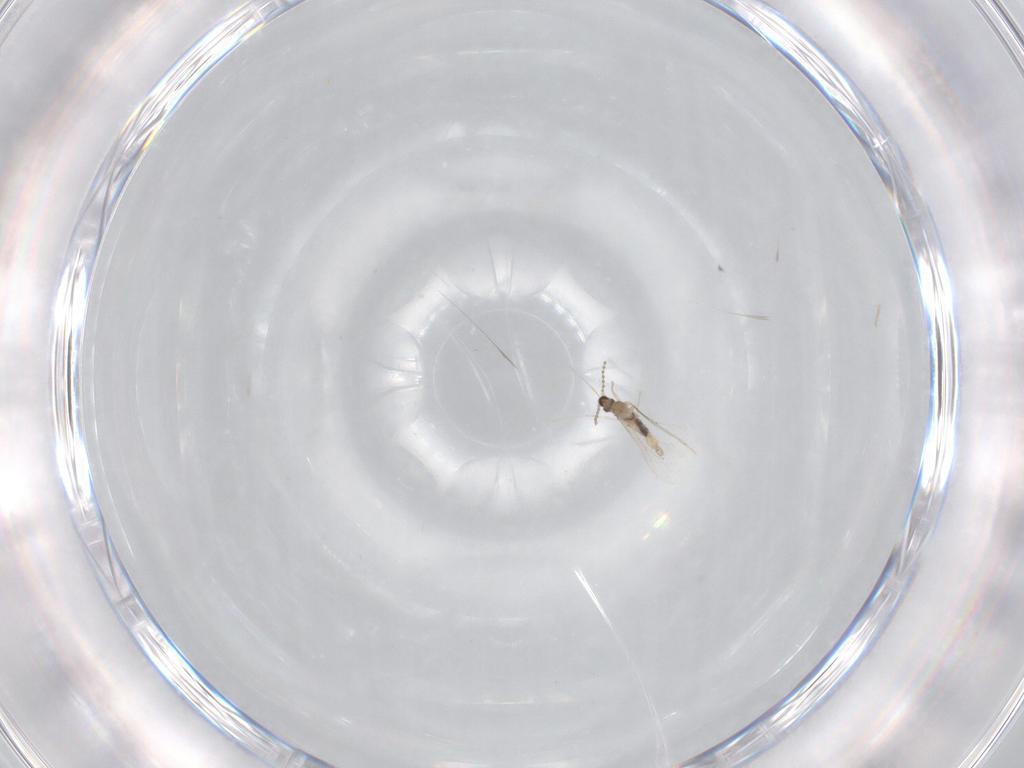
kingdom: Animalia
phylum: Arthropoda
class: Insecta
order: Diptera
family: Cecidomyiidae
